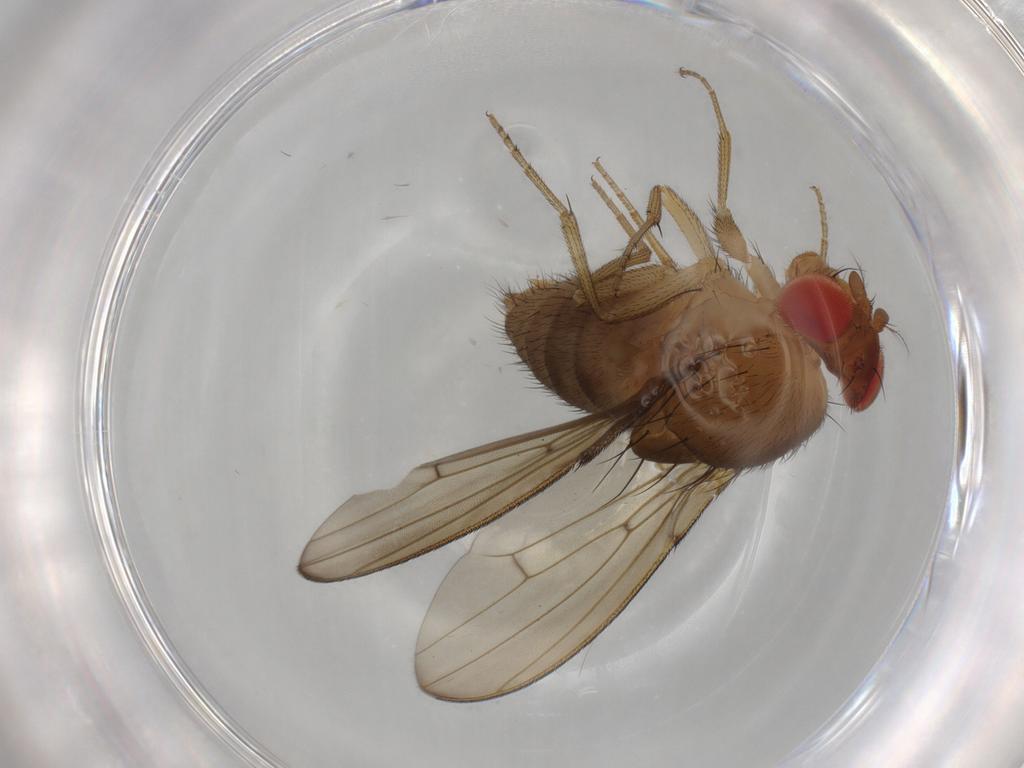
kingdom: Animalia
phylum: Arthropoda
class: Insecta
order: Diptera
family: Drosophilidae
